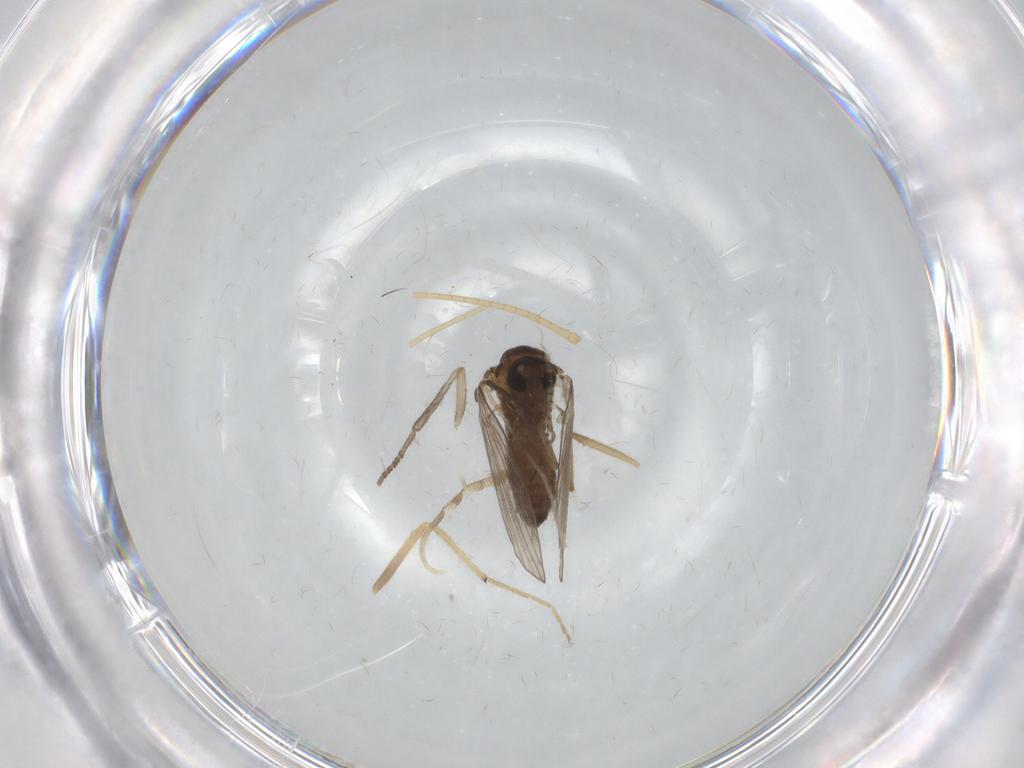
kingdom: Animalia
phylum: Arthropoda
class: Insecta
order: Diptera
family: Psychodidae
